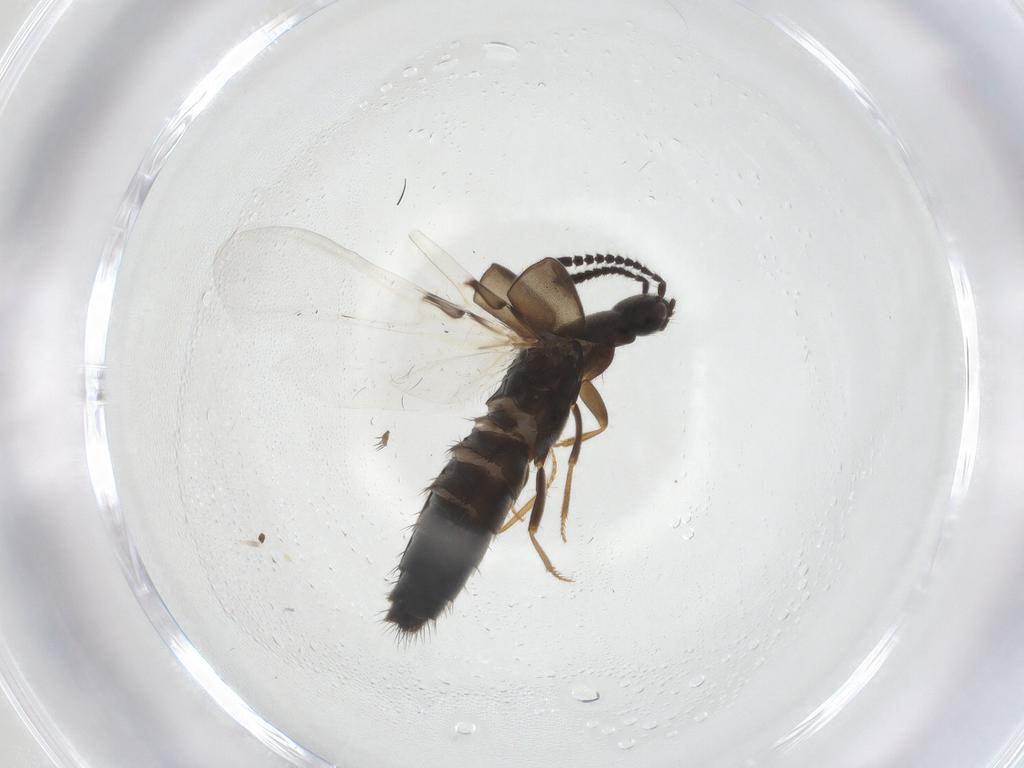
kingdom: Animalia
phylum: Arthropoda
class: Insecta
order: Coleoptera
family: Staphylinidae
